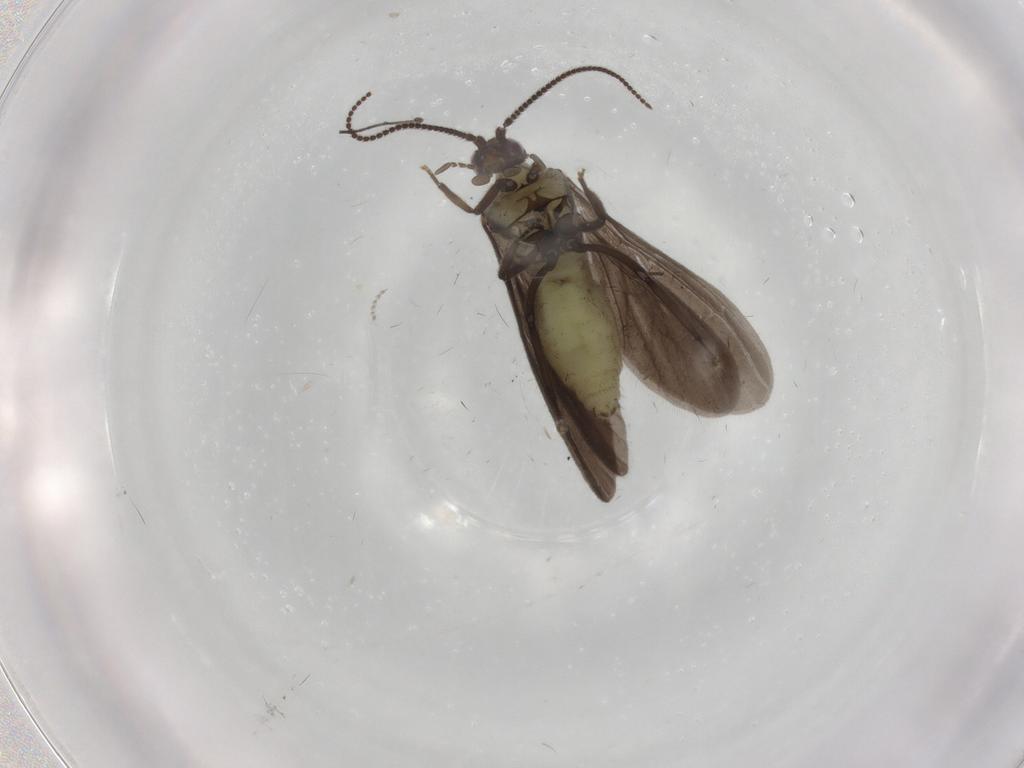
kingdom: Animalia
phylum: Arthropoda
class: Insecta
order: Neuroptera
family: Coniopterygidae
